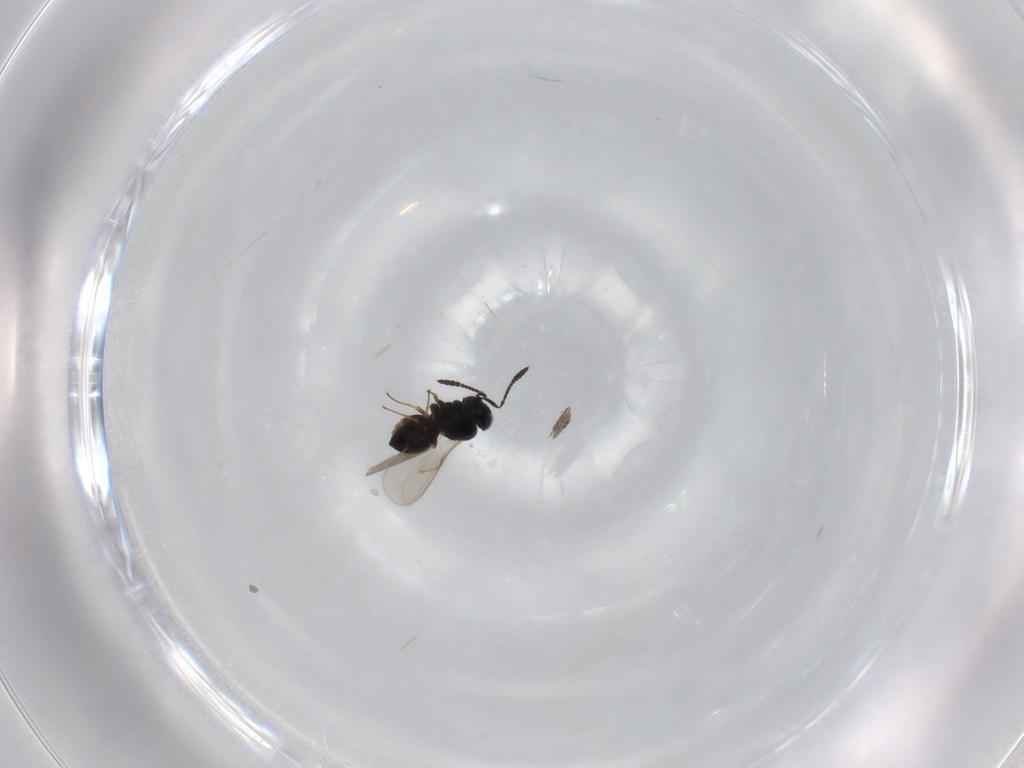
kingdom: Animalia
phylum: Arthropoda
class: Insecta
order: Hymenoptera
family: Scelionidae
